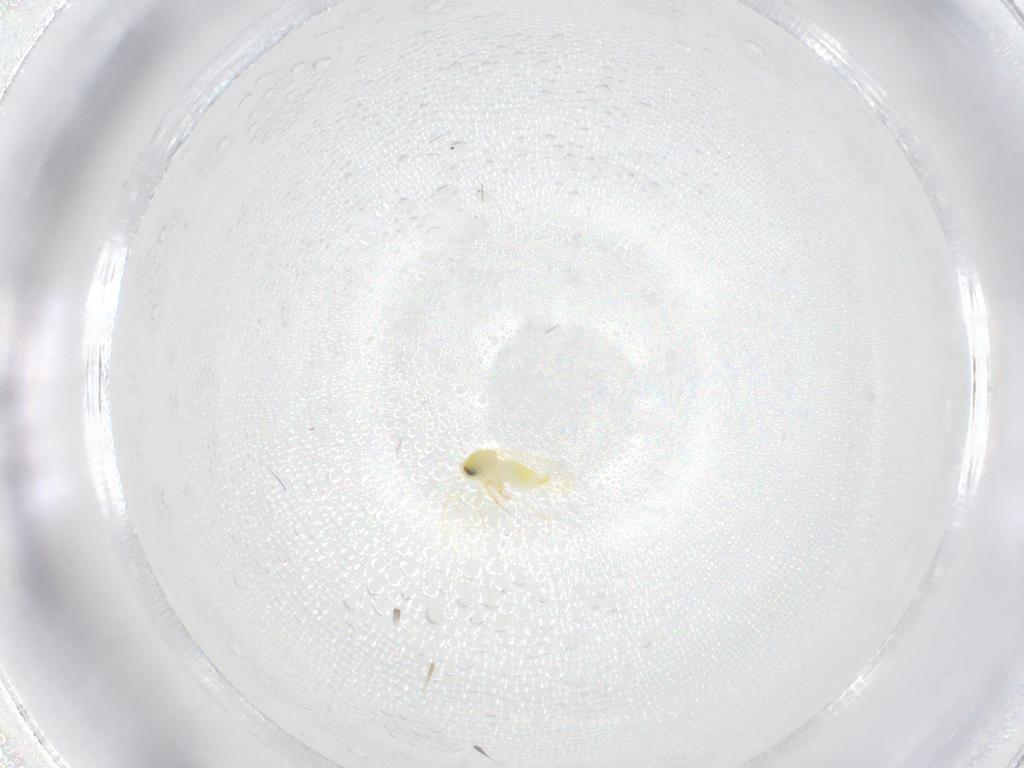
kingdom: Animalia
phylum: Arthropoda
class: Insecta
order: Hemiptera
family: Aleyrodidae
